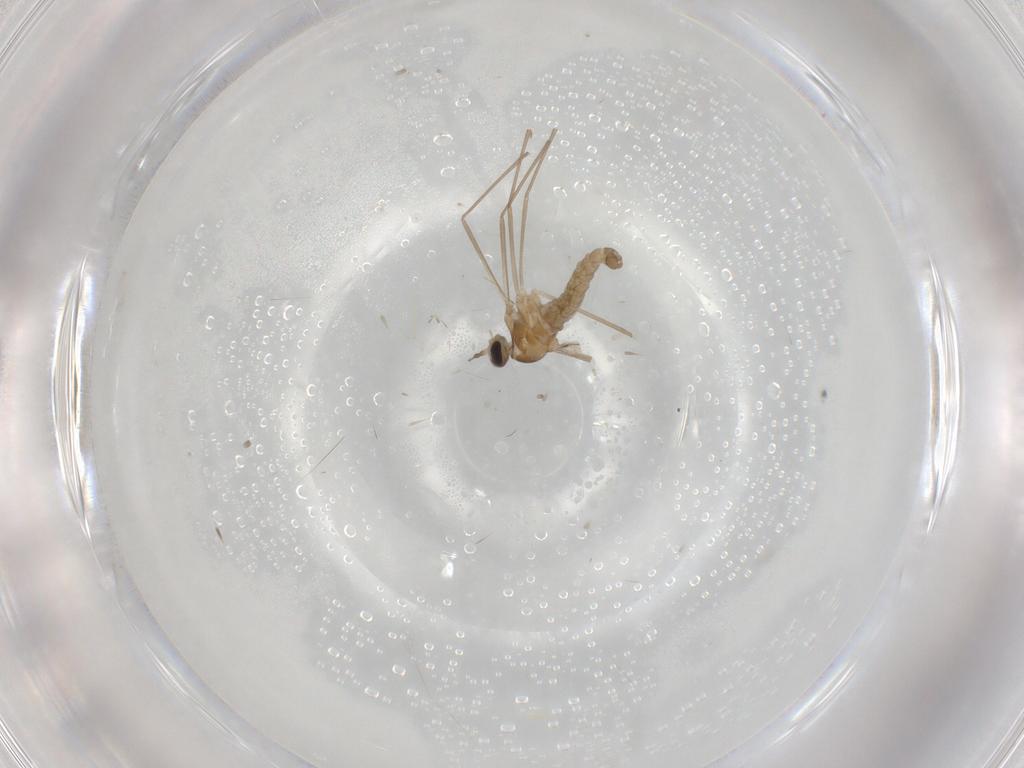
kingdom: Animalia
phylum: Arthropoda
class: Insecta
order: Diptera
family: Cecidomyiidae
